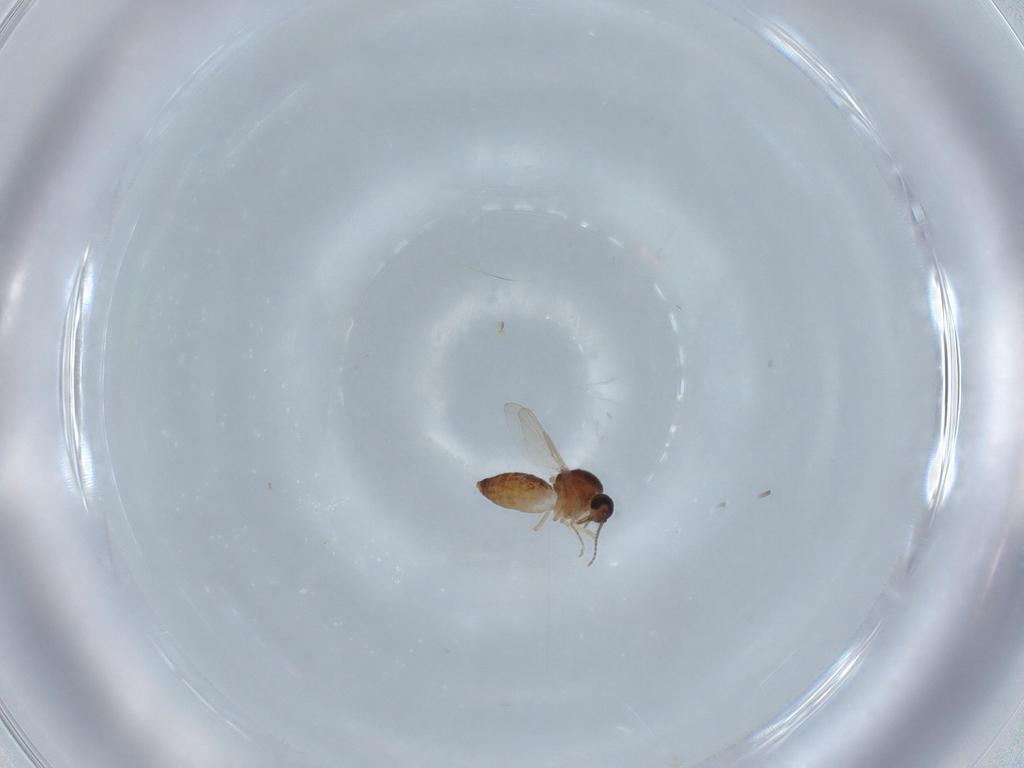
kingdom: Animalia
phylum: Arthropoda
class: Insecta
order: Diptera
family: Ceratopogonidae
